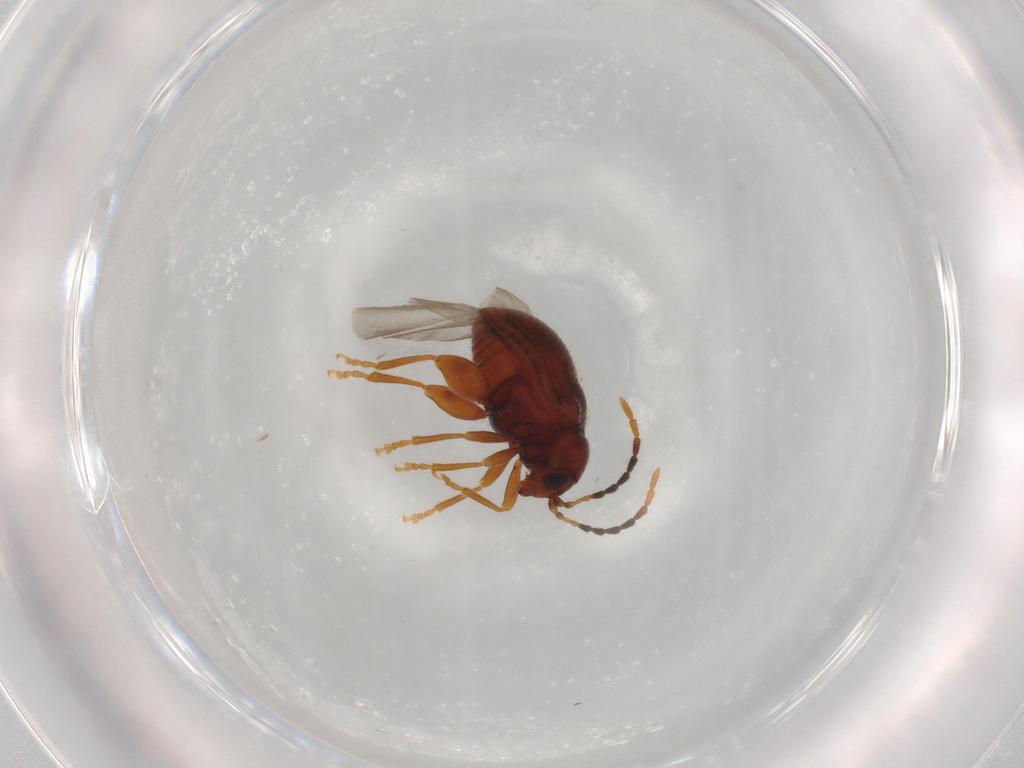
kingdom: Animalia
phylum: Arthropoda
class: Insecta
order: Coleoptera
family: Chrysomelidae
